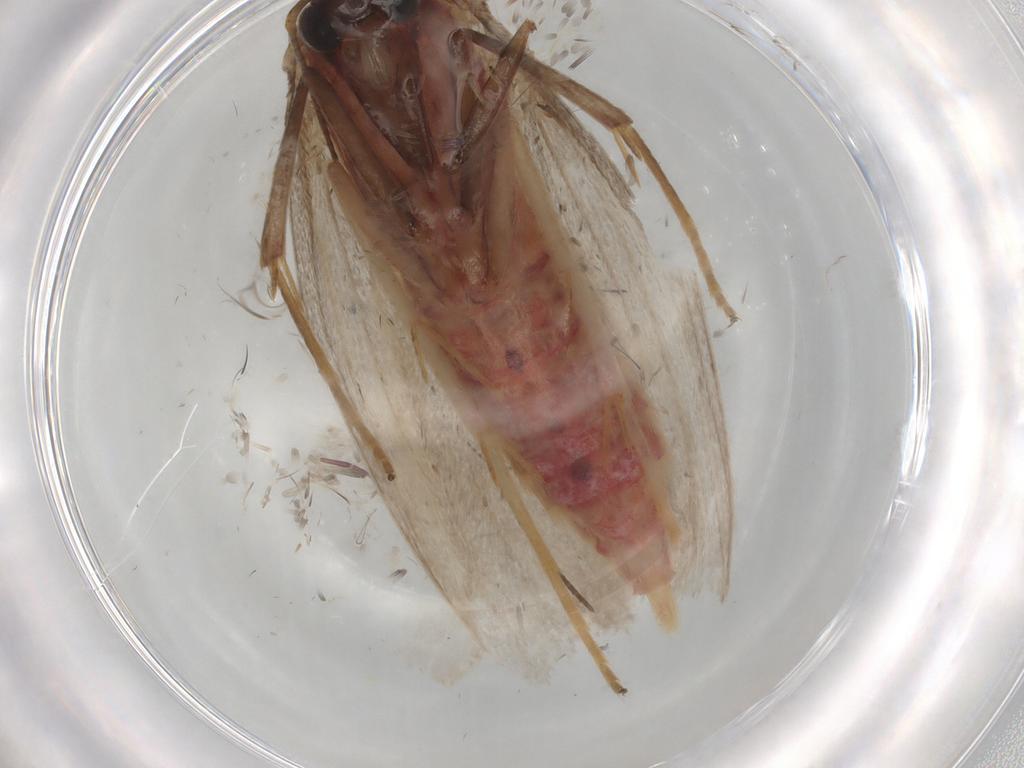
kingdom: Animalia
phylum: Arthropoda
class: Insecta
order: Lepidoptera
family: Oecophoridae
